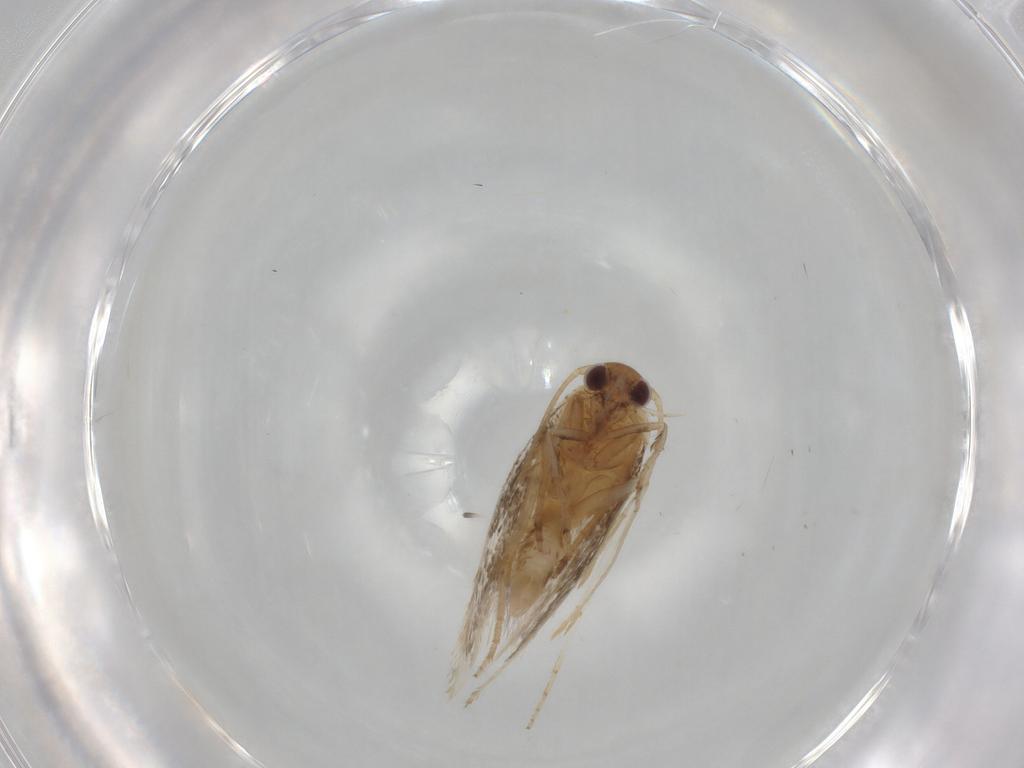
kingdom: Animalia
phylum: Arthropoda
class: Insecta
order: Lepidoptera
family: Elachistidae
